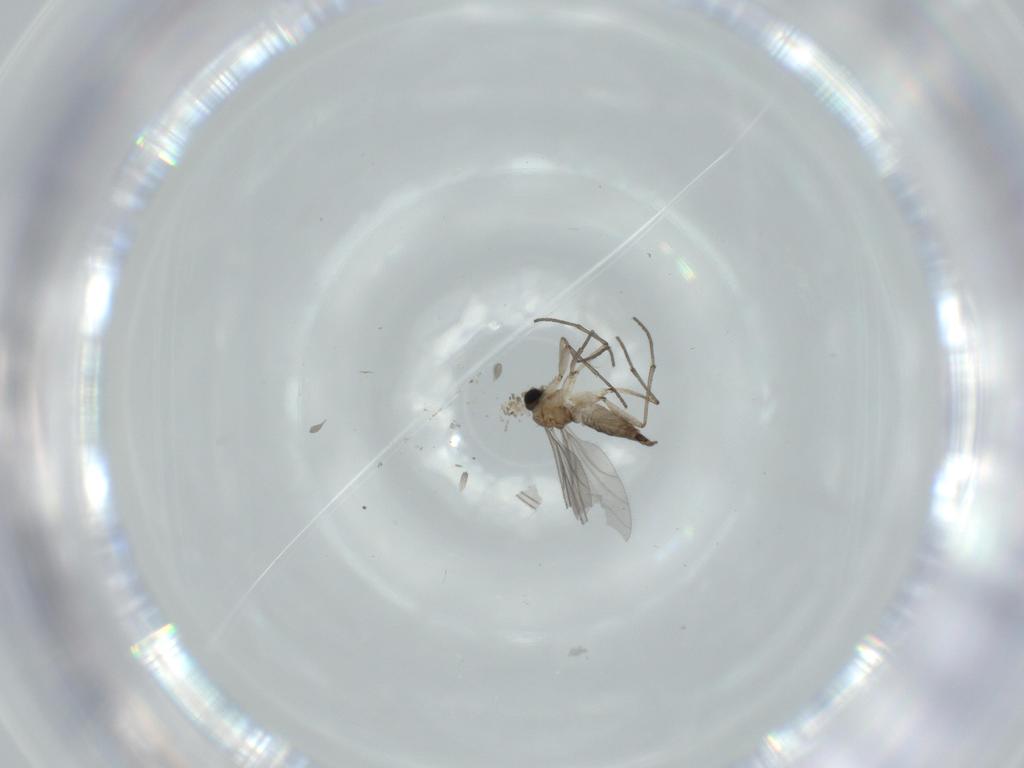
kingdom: Animalia
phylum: Arthropoda
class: Insecta
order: Diptera
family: Sciaridae
